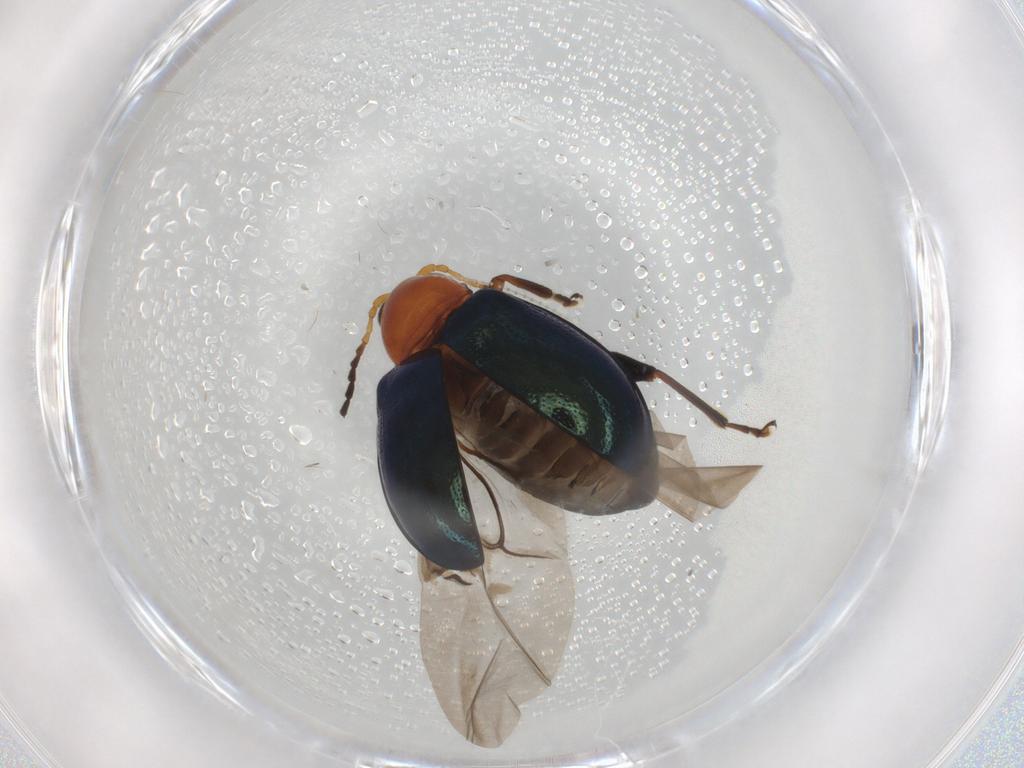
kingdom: Animalia
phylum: Arthropoda
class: Insecta
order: Coleoptera
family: Chrysomelidae
